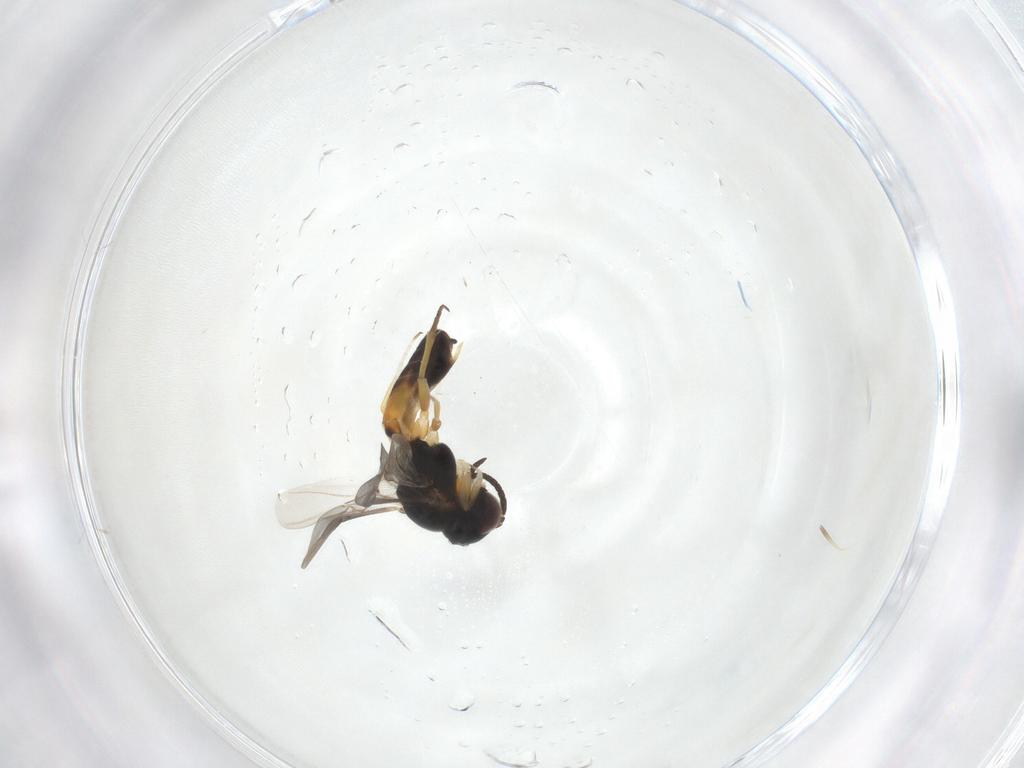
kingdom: Animalia
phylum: Arthropoda
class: Insecta
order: Hymenoptera
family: Braconidae
